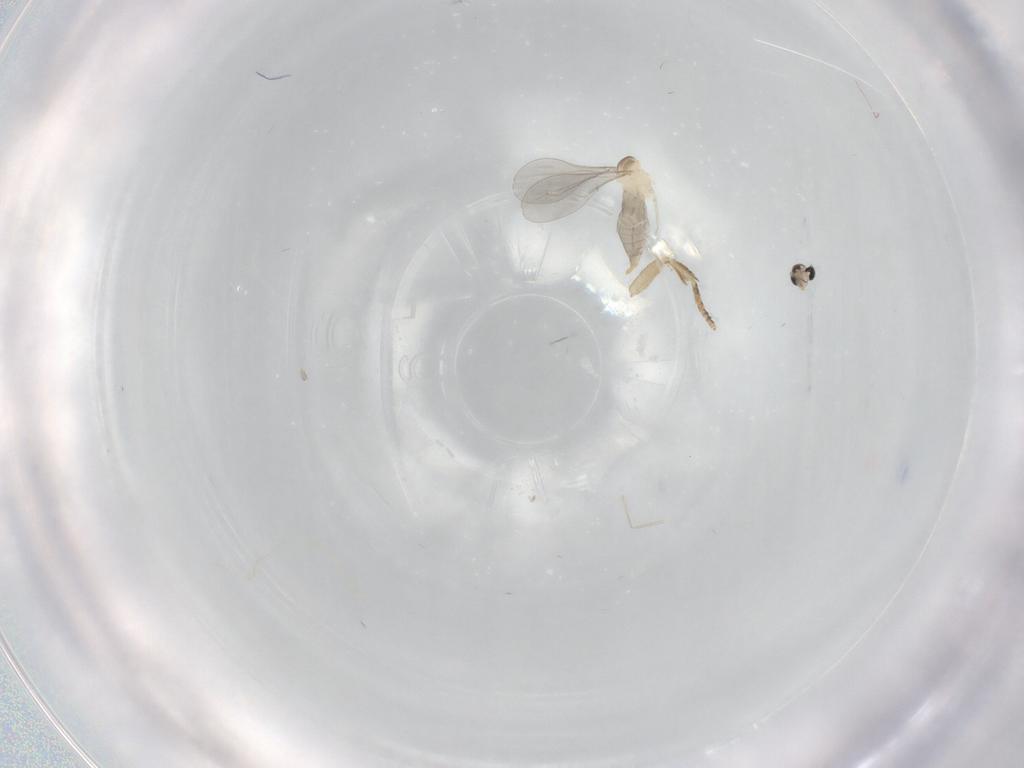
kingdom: Animalia
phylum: Arthropoda
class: Insecta
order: Diptera
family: Cecidomyiidae
